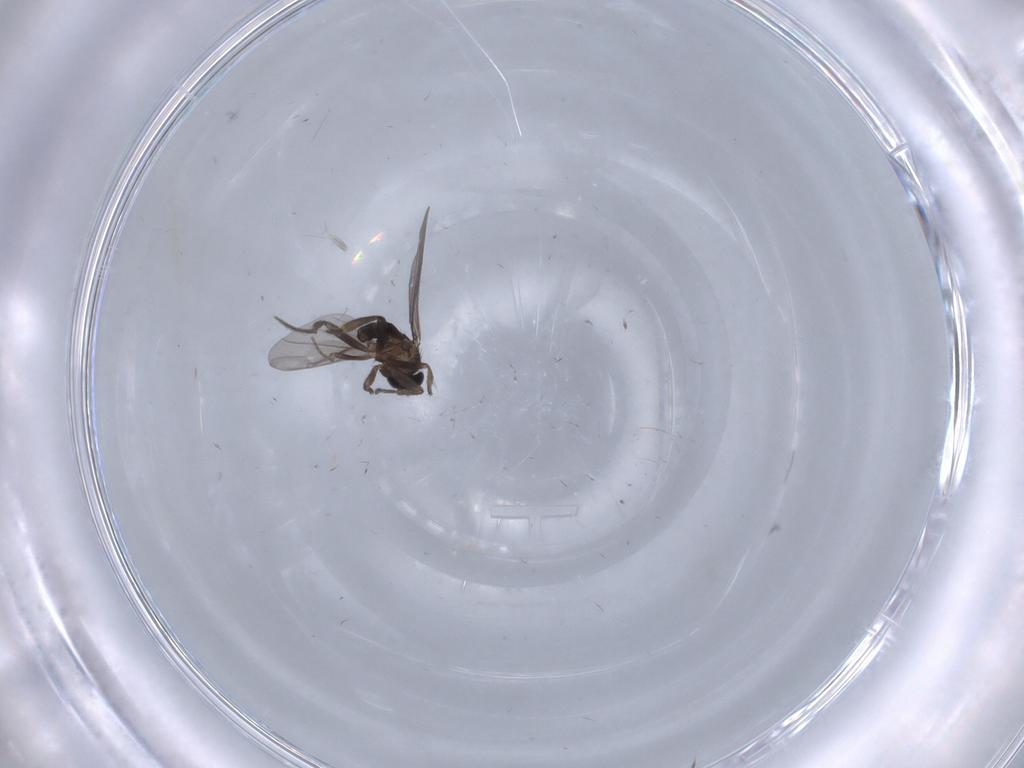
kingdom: Animalia
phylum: Arthropoda
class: Insecta
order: Diptera
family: Phoridae
